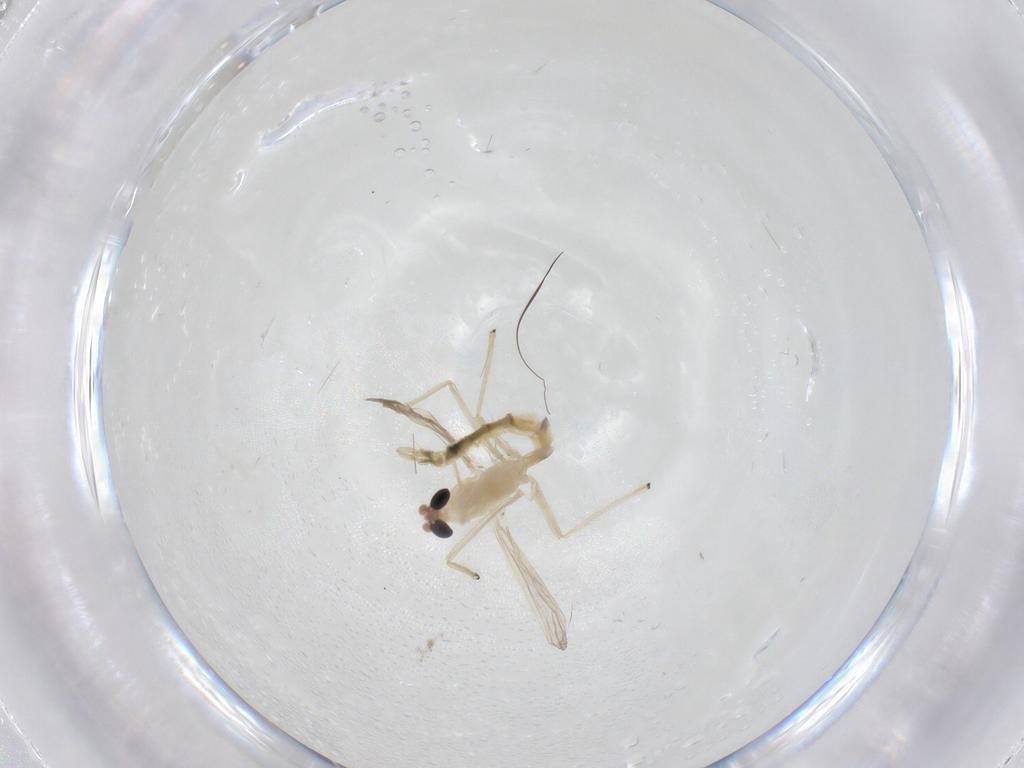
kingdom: Animalia
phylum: Arthropoda
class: Insecta
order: Diptera
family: Chironomidae
